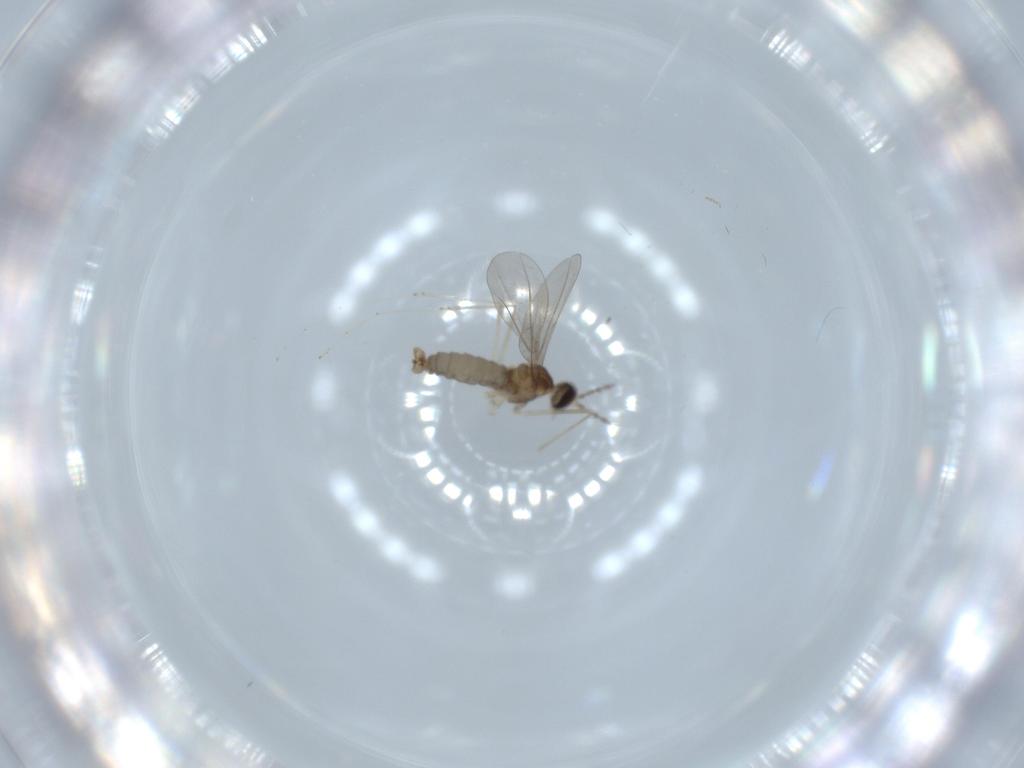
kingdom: Animalia
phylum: Arthropoda
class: Insecta
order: Diptera
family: Cecidomyiidae
